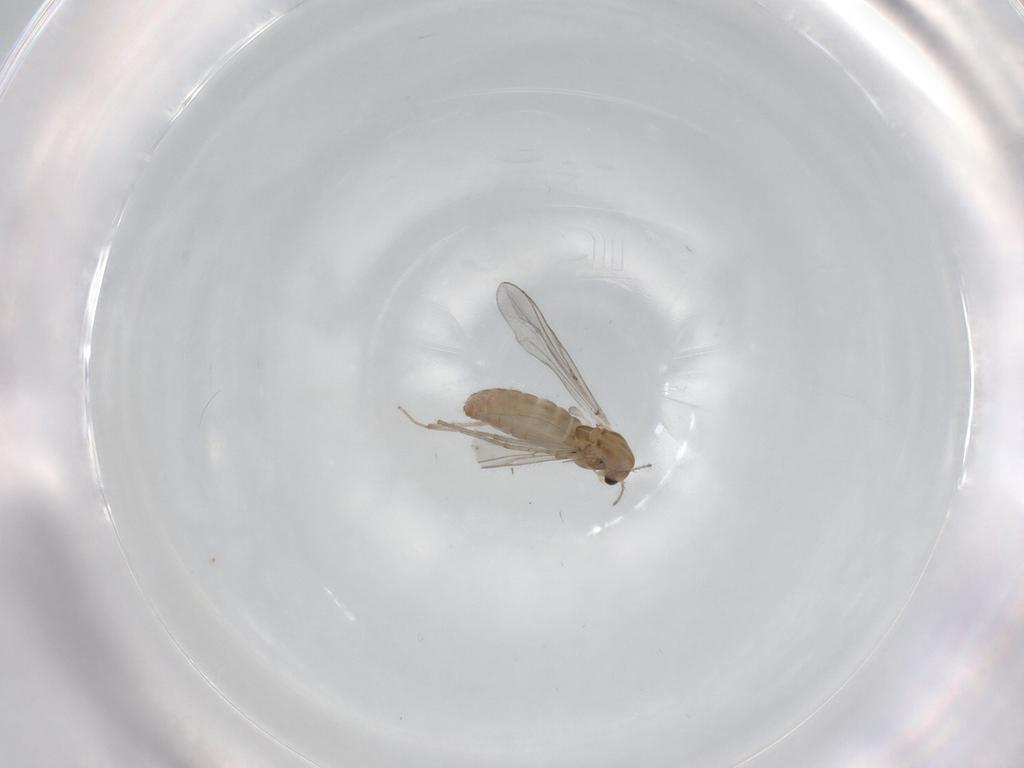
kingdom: Animalia
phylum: Arthropoda
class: Insecta
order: Diptera
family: Chironomidae
